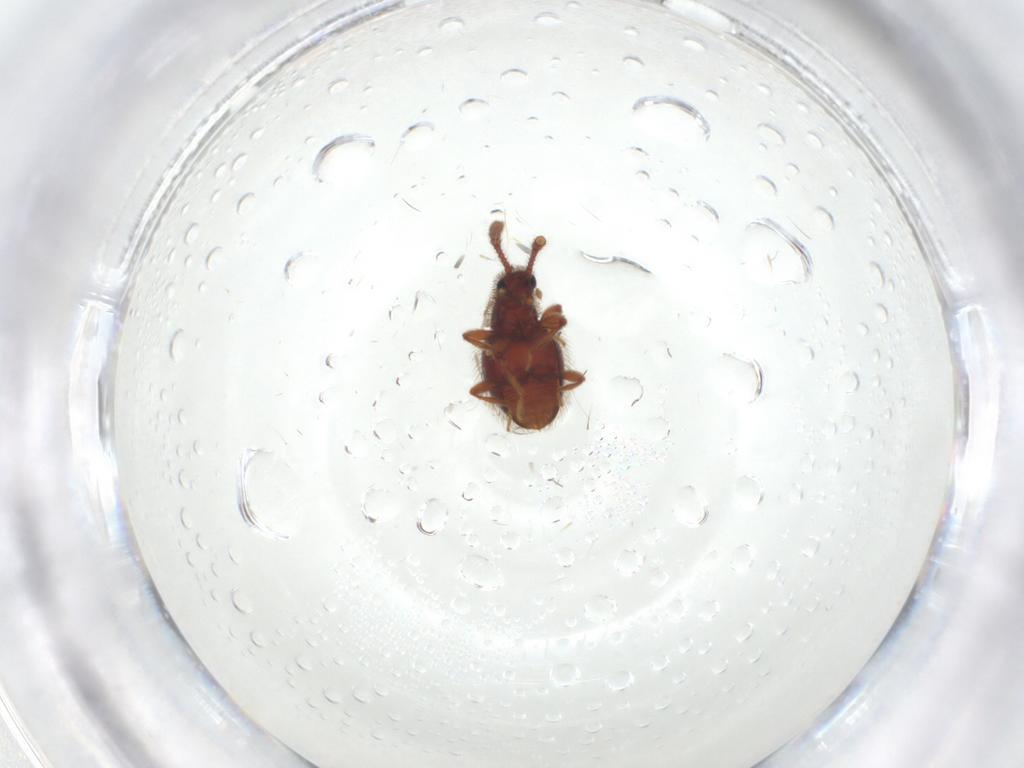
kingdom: Animalia
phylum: Arthropoda
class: Insecta
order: Coleoptera
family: Staphylinidae
